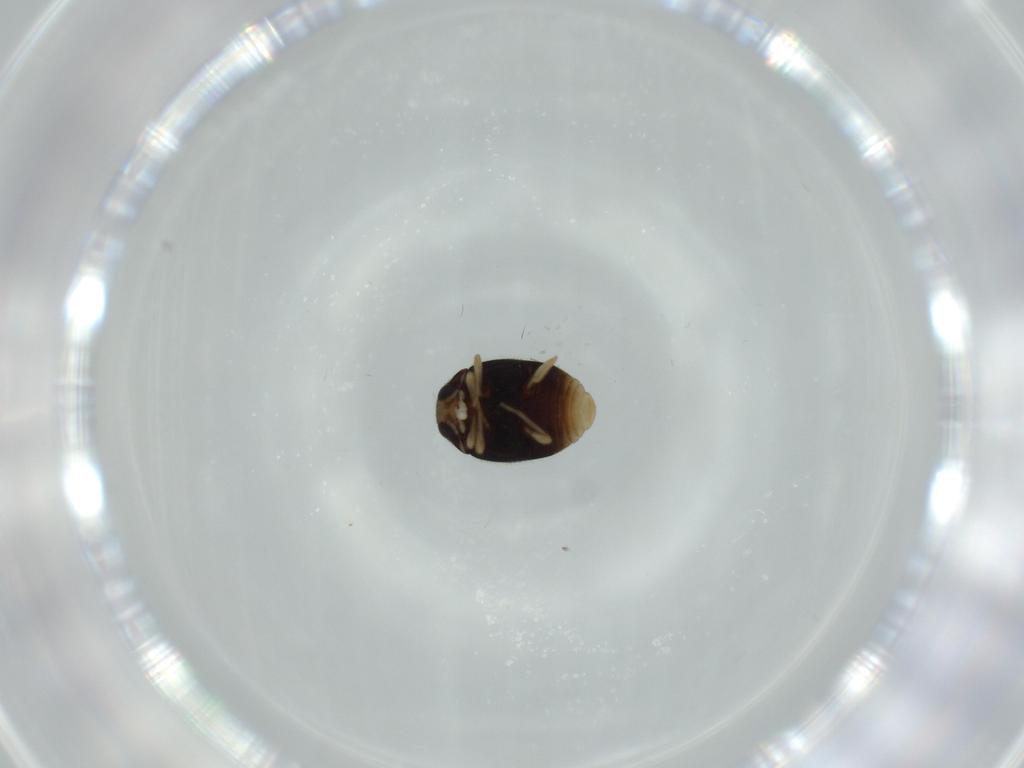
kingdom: Animalia
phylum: Arthropoda
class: Insecta
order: Coleoptera
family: Coccinellidae
